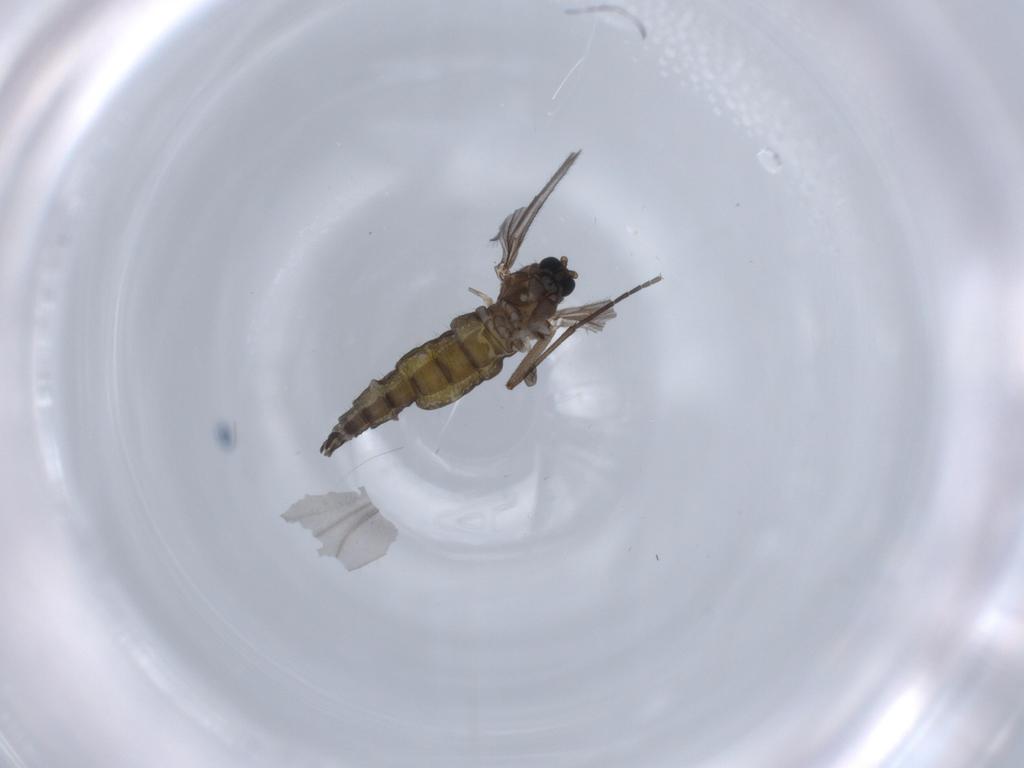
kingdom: Animalia
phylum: Arthropoda
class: Insecta
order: Diptera
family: Sciaridae
